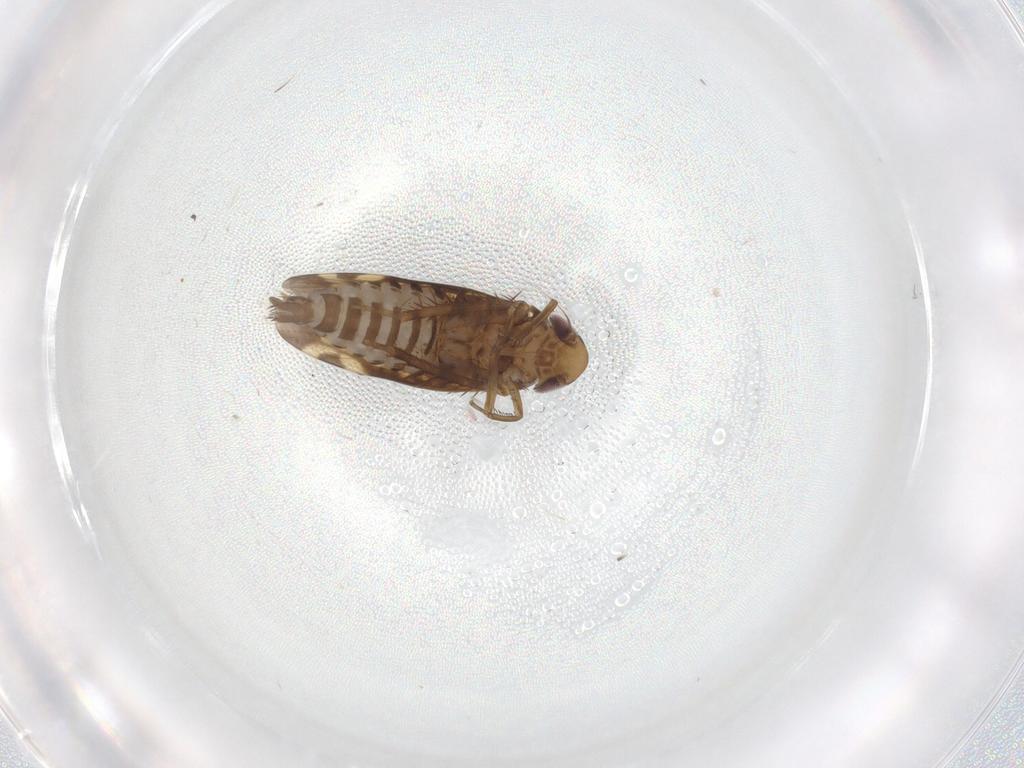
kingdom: Animalia
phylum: Arthropoda
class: Insecta
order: Hemiptera
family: Cicadellidae
